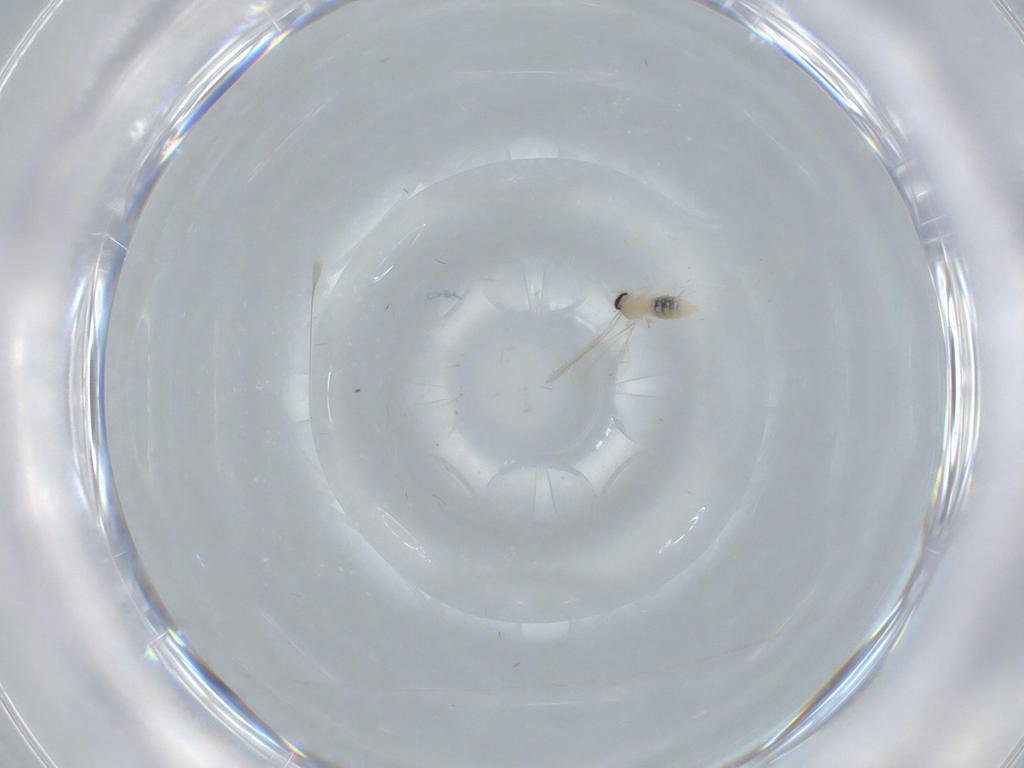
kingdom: Animalia
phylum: Arthropoda
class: Insecta
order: Diptera
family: Cecidomyiidae
